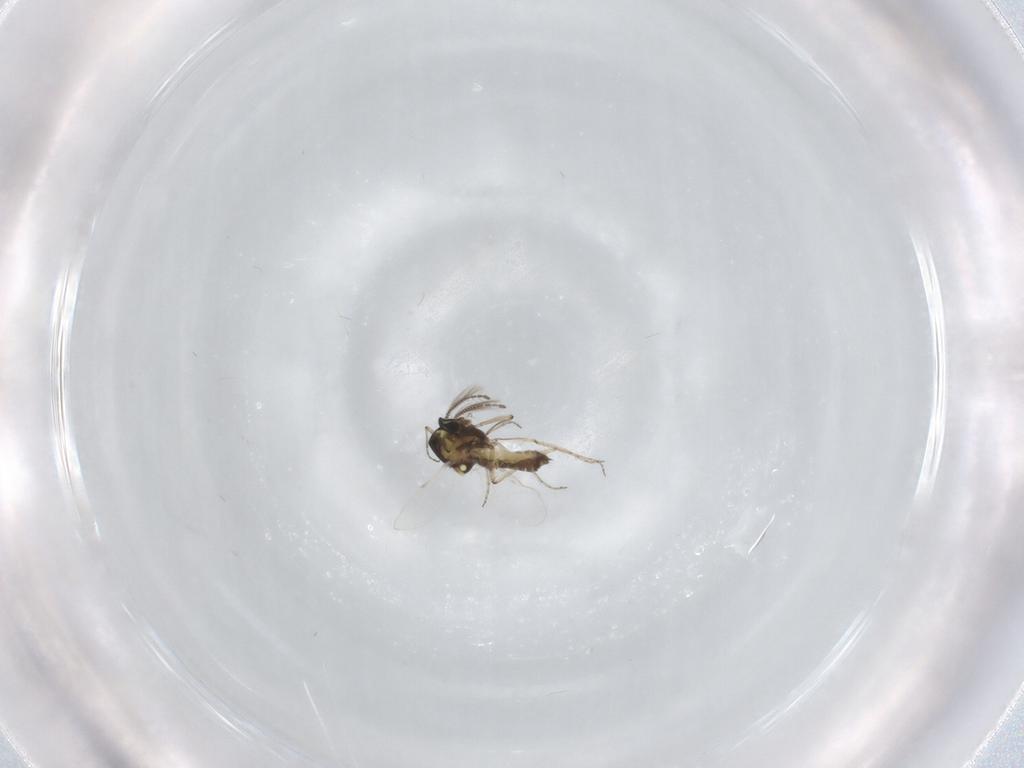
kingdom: Animalia
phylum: Arthropoda
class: Insecta
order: Diptera
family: Ceratopogonidae
